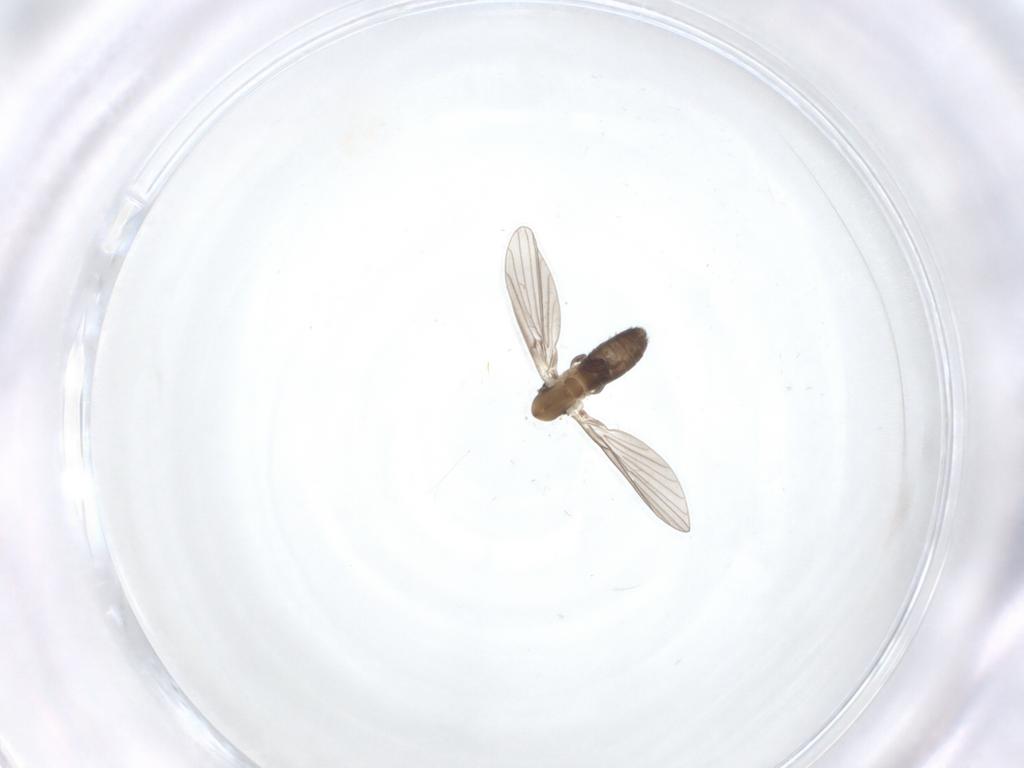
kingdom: Animalia
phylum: Arthropoda
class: Insecta
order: Diptera
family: Psychodidae
